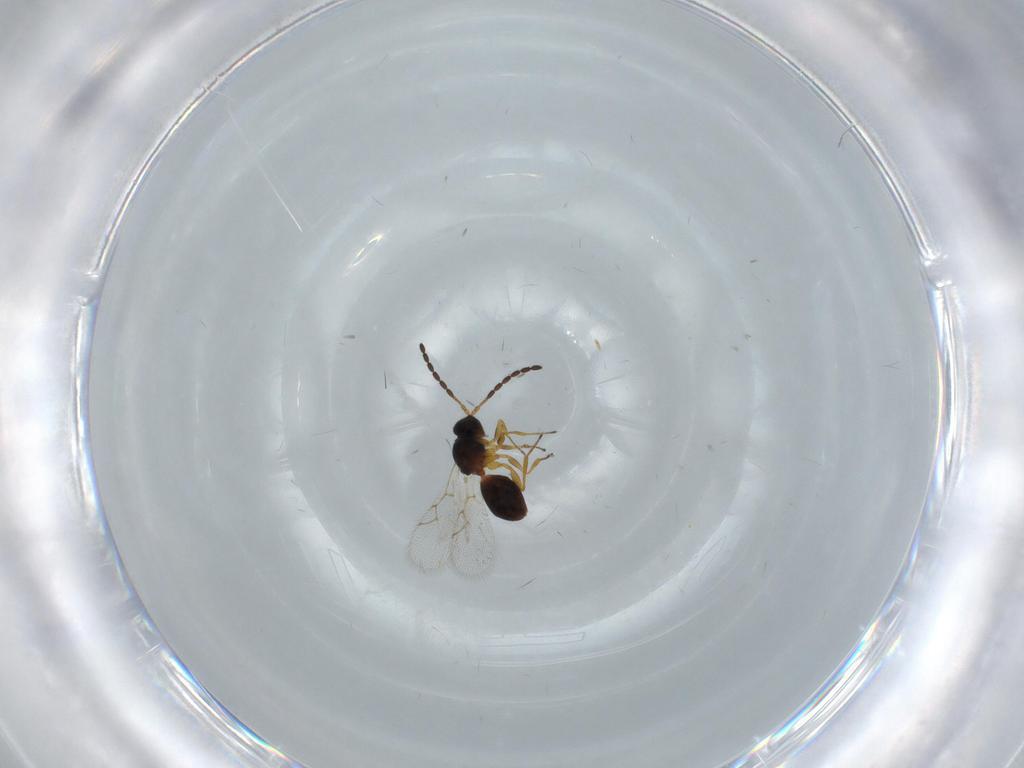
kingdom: Animalia
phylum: Arthropoda
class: Insecta
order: Hymenoptera
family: Figitidae
